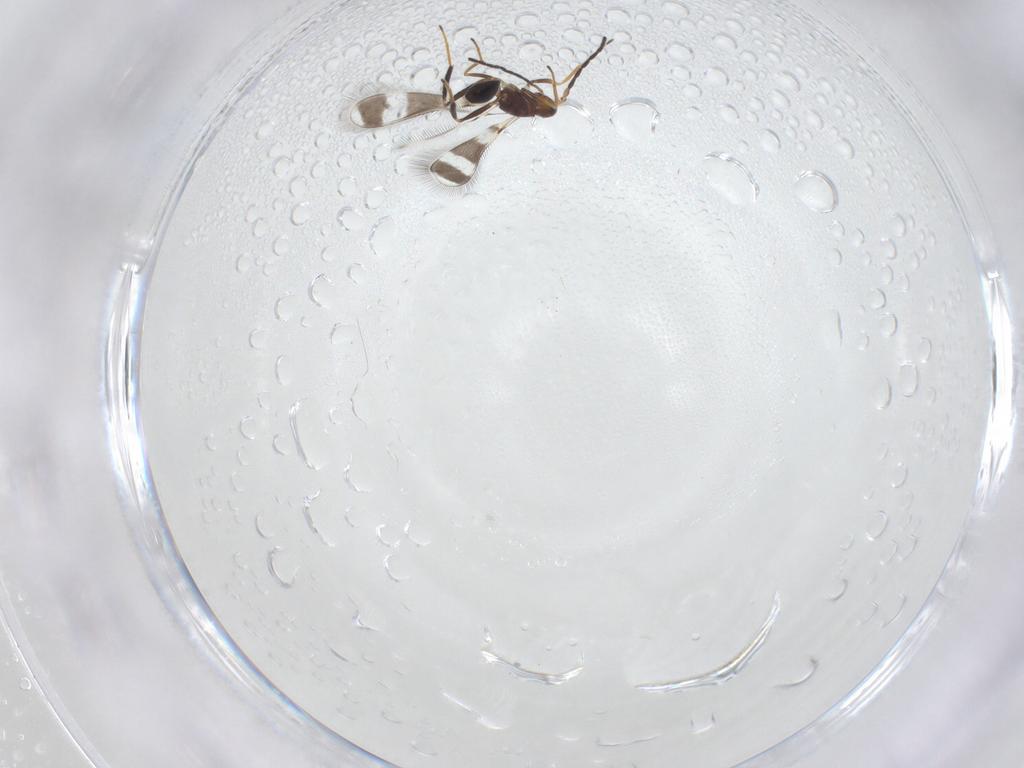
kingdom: Animalia
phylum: Arthropoda
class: Insecta
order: Hymenoptera
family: Mymaridae
